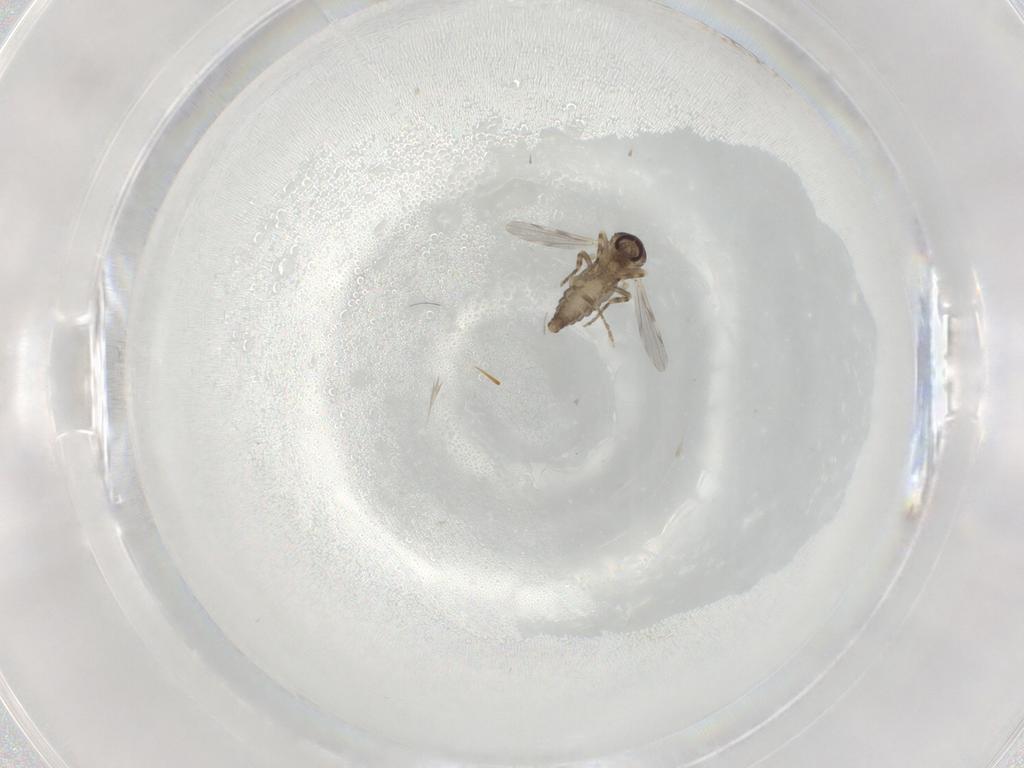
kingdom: Animalia
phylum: Arthropoda
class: Insecta
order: Diptera
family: Ceratopogonidae
